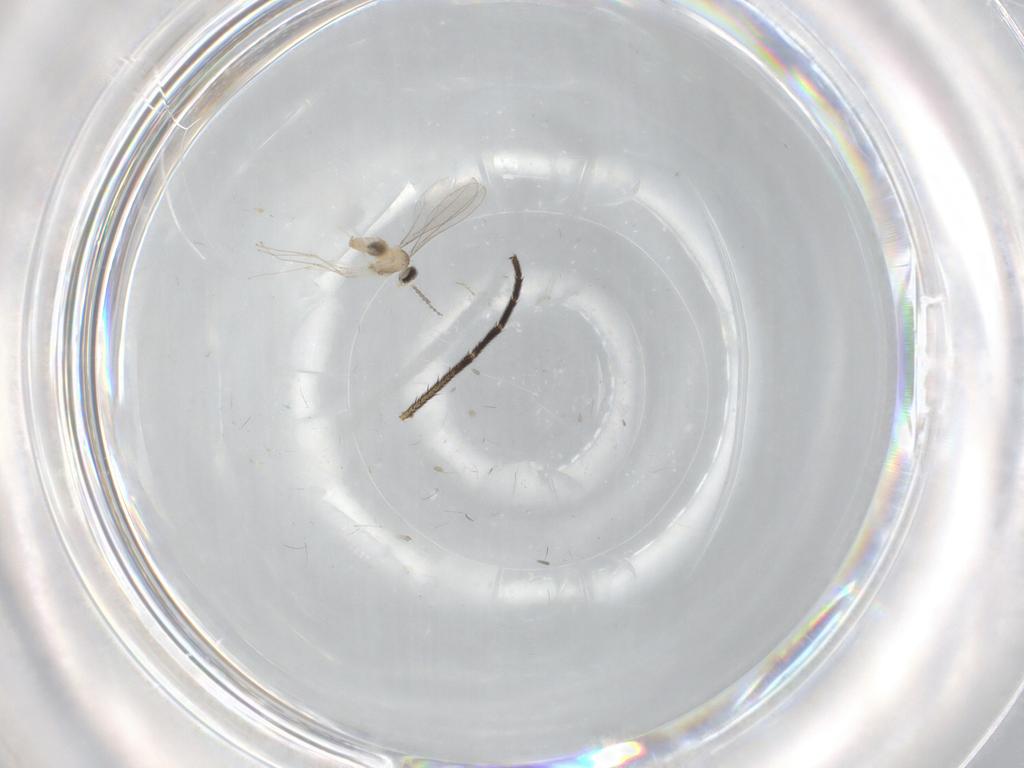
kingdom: Animalia
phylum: Arthropoda
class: Insecta
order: Diptera
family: Cecidomyiidae
